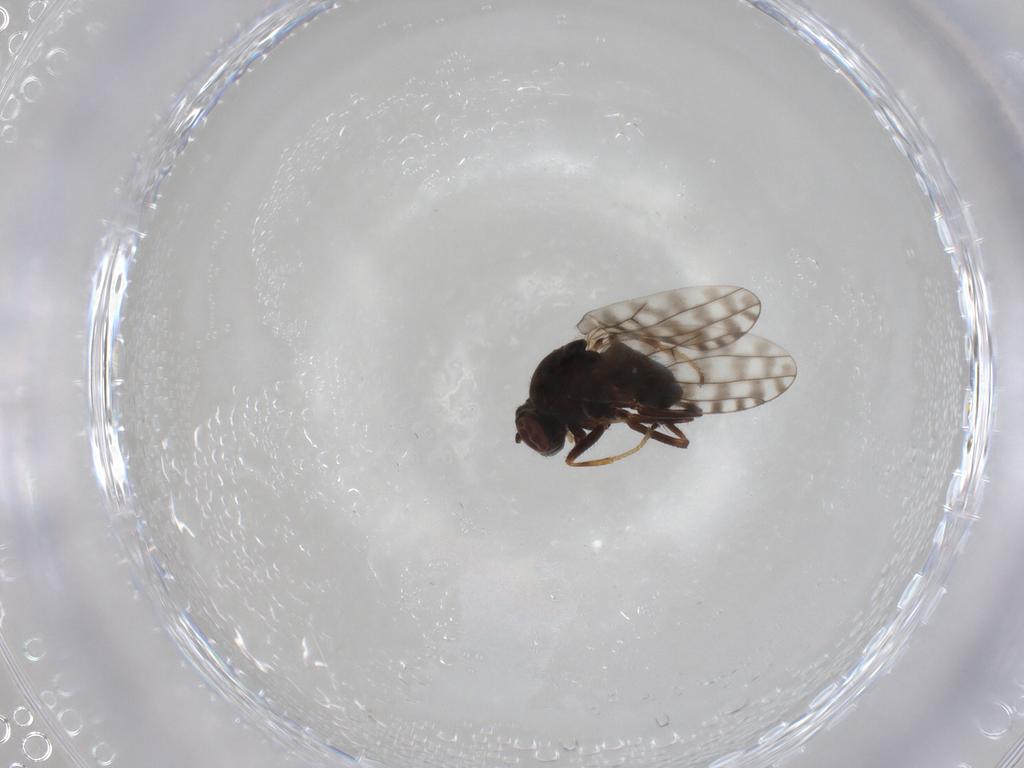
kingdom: Animalia
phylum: Arthropoda
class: Insecta
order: Diptera
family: Ephydridae
